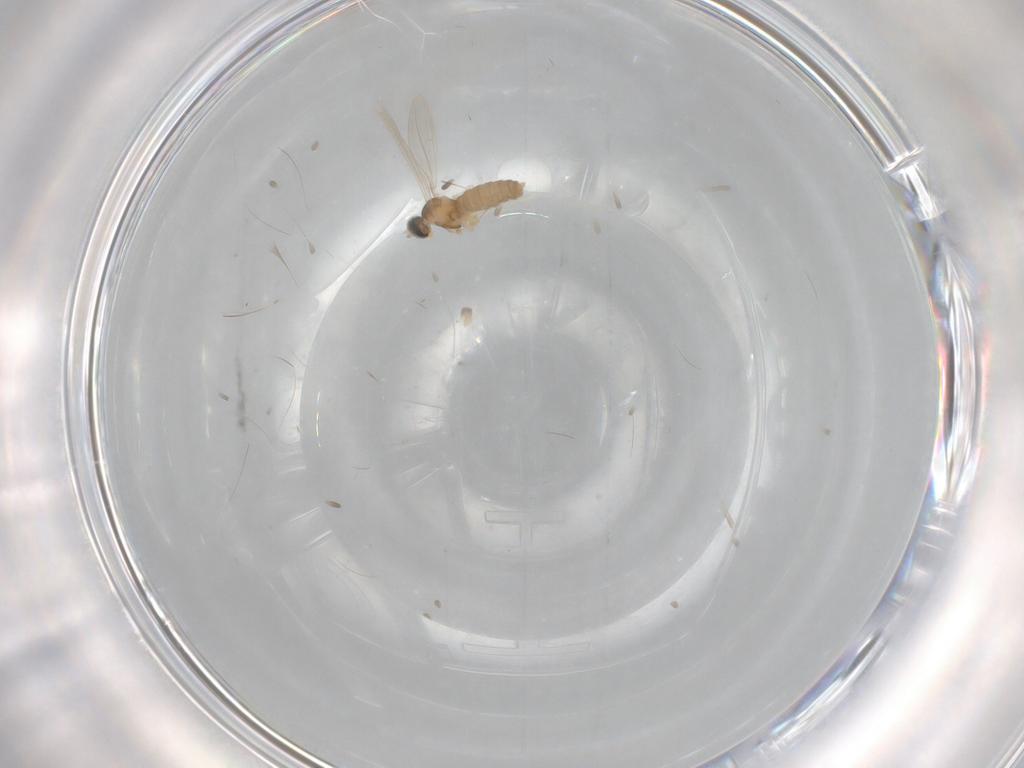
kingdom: Animalia
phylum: Arthropoda
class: Insecta
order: Diptera
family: Cecidomyiidae
